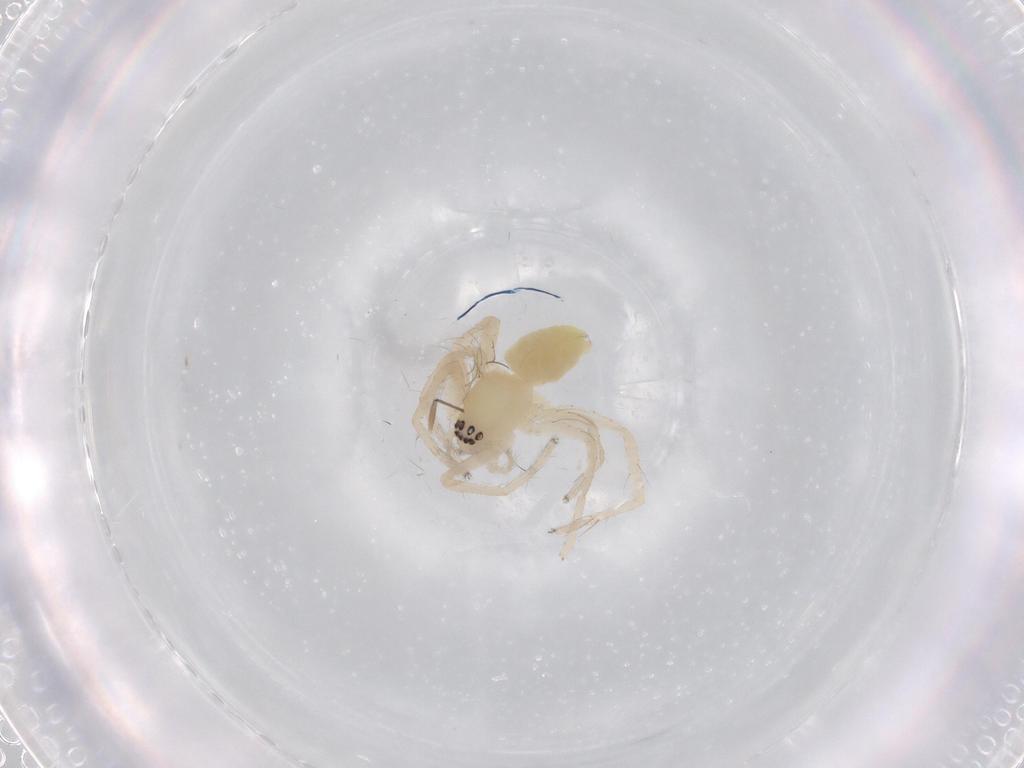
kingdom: Animalia
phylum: Arthropoda
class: Arachnida
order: Araneae
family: Anyphaenidae
